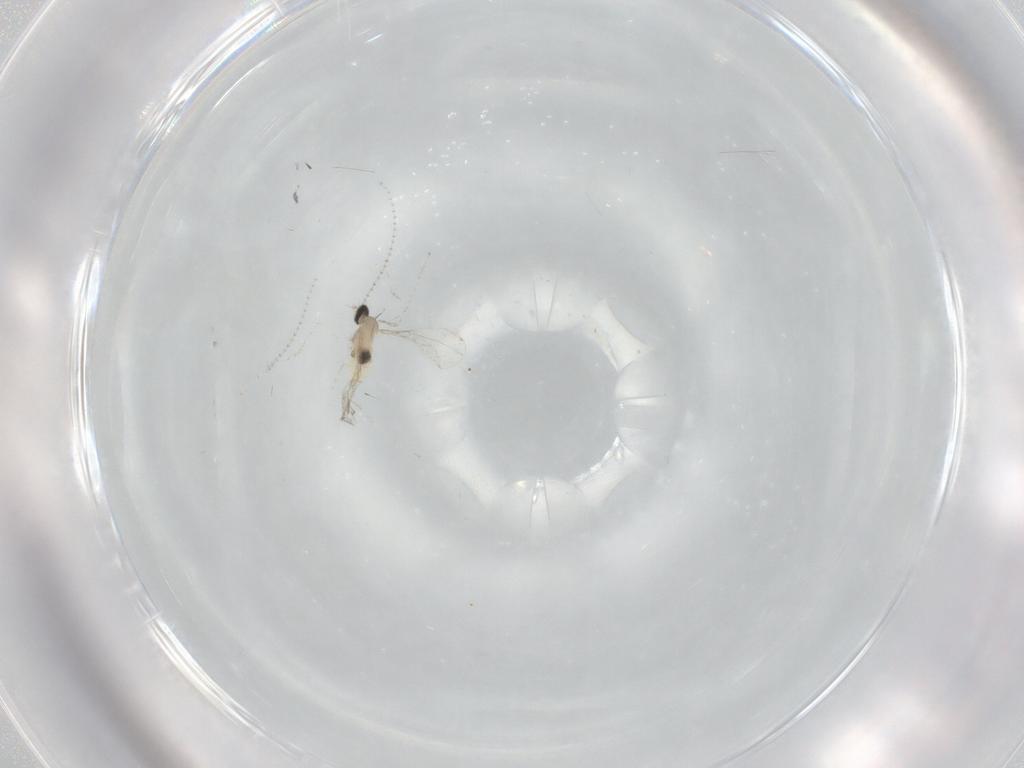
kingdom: Animalia
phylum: Arthropoda
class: Insecta
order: Diptera
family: Cecidomyiidae
